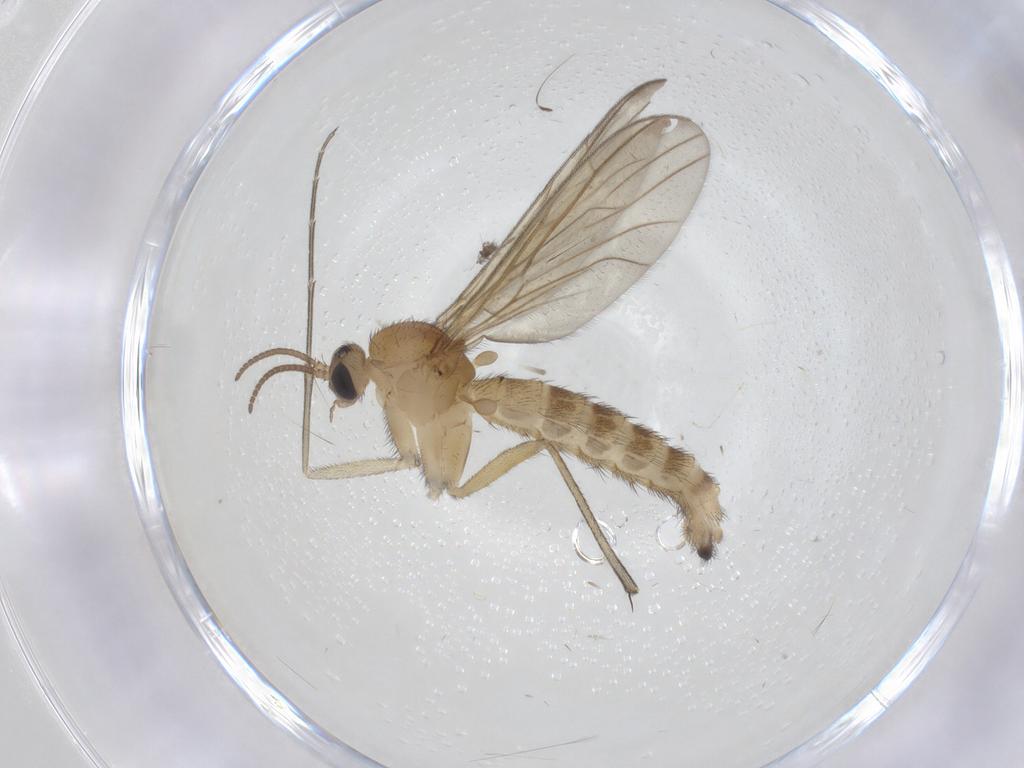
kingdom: Animalia
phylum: Arthropoda
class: Insecta
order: Diptera
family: Keroplatidae
